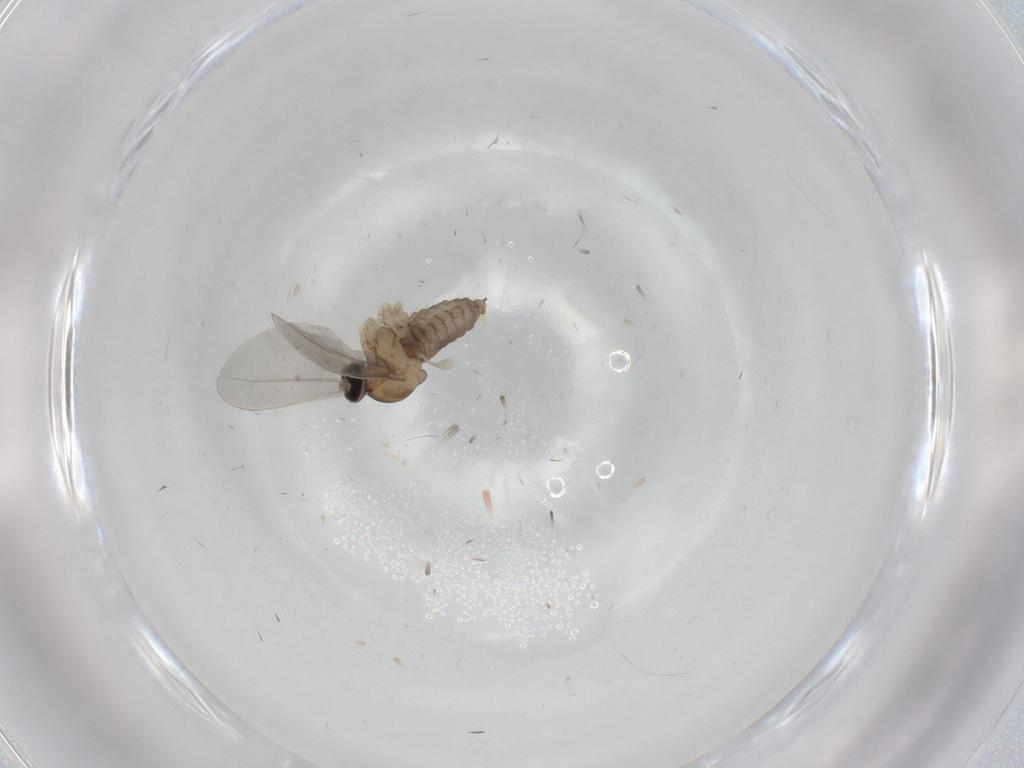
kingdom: Animalia
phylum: Arthropoda
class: Insecta
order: Diptera
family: Cecidomyiidae
